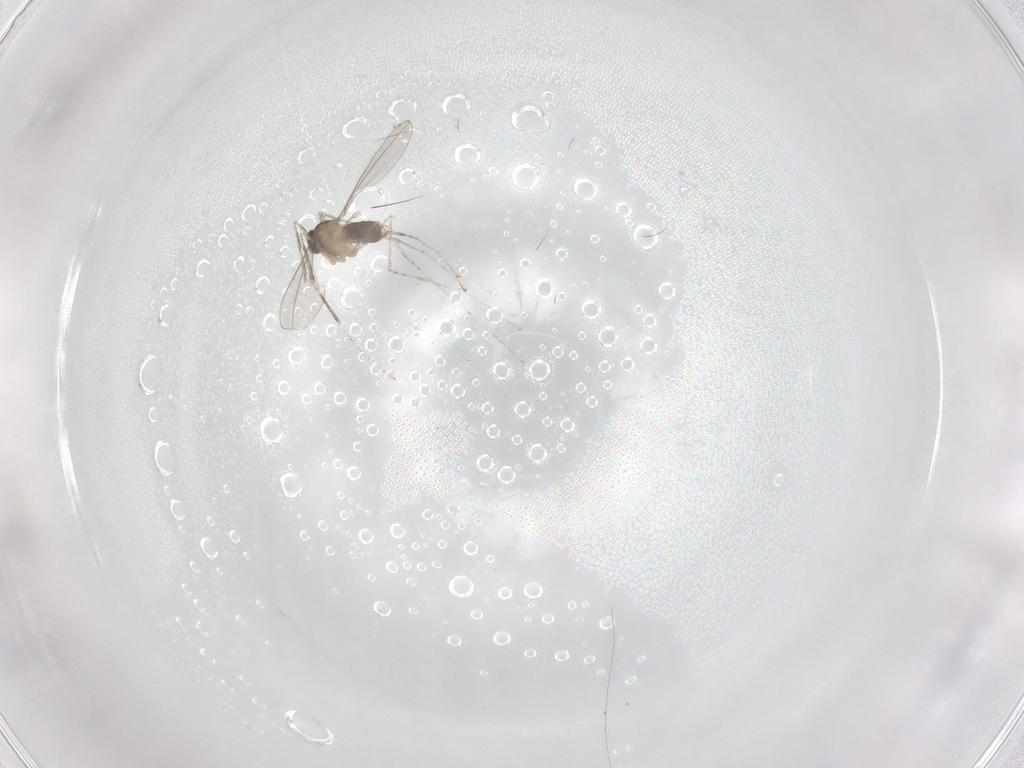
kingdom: Animalia
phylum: Arthropoda
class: Insecta
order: Diptera
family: Cecidomyiidae
